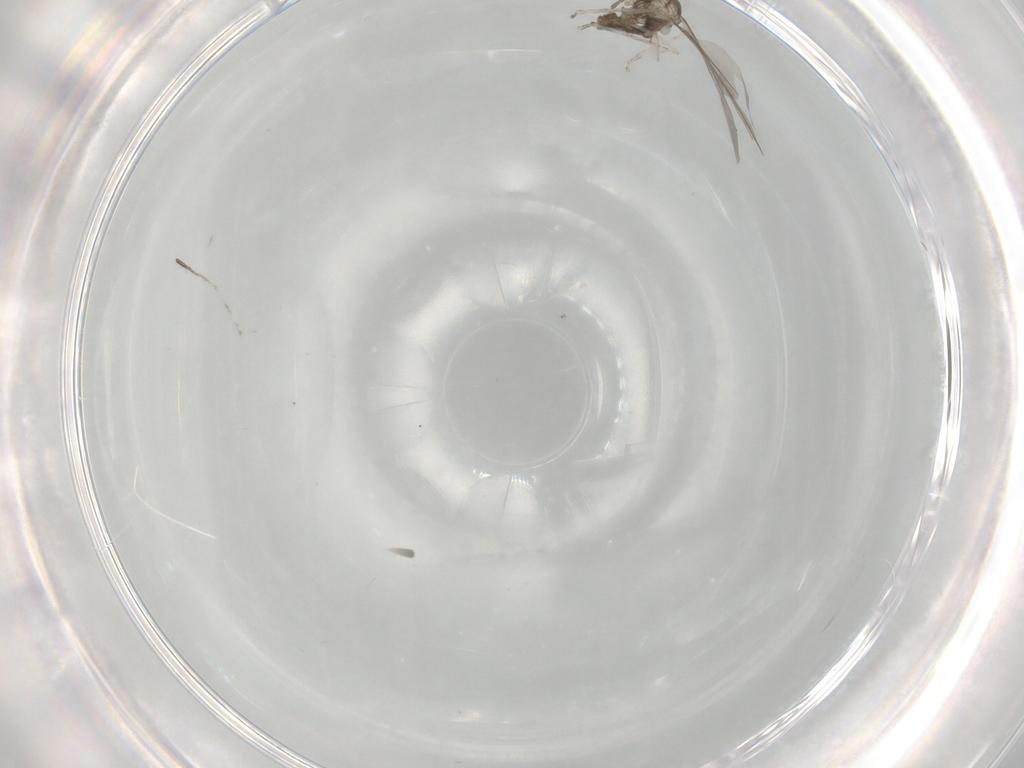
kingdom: Animalia
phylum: Arthropoda
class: Insecta
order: Diptera
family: Cecidomyiidae
